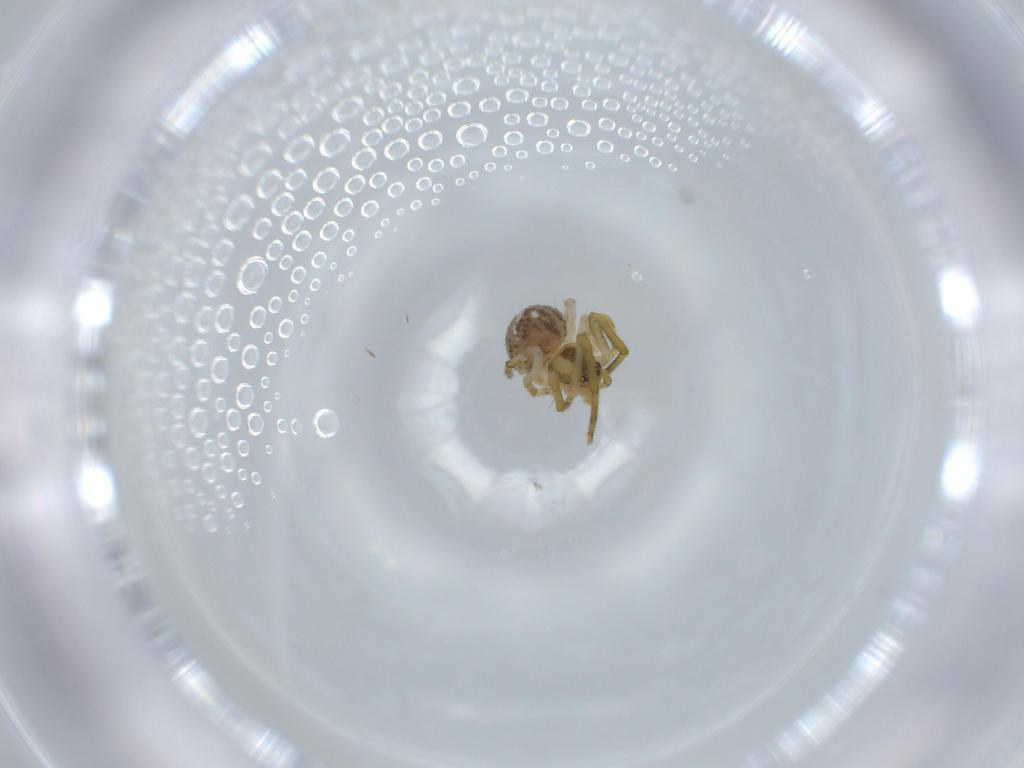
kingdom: Animalia
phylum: Arthropoda
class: Arachnida
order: Araneae
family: Theridiidae
